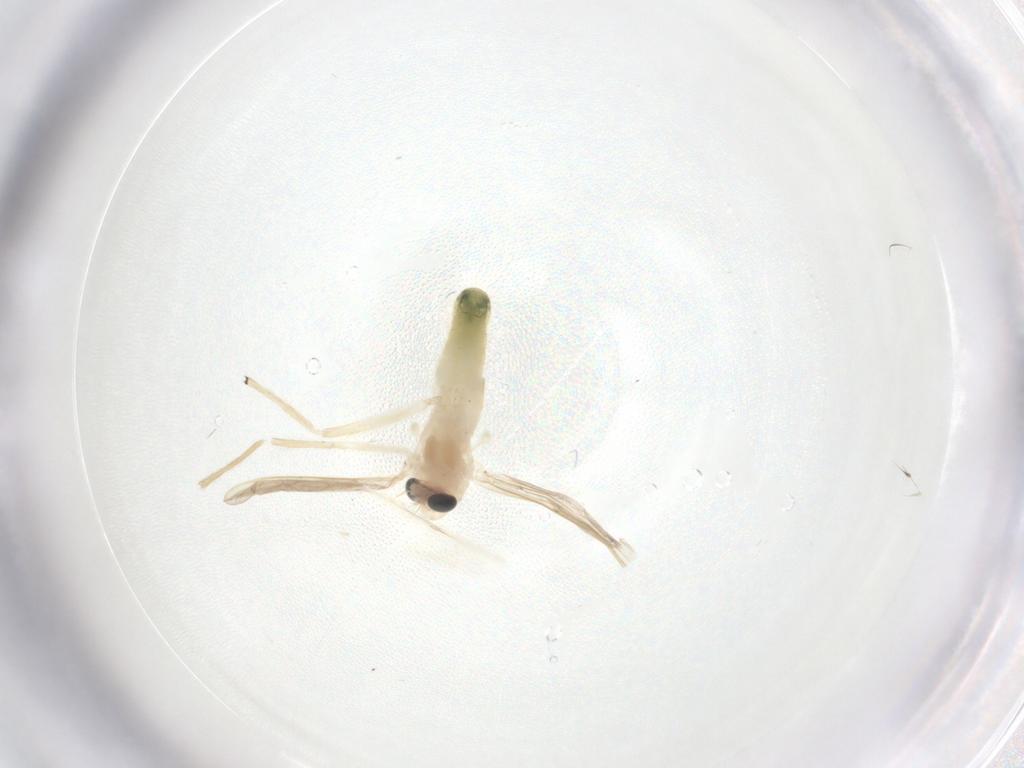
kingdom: Animalia
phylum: Arthropoda
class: Insecta
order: Diptera
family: Chironomidae
